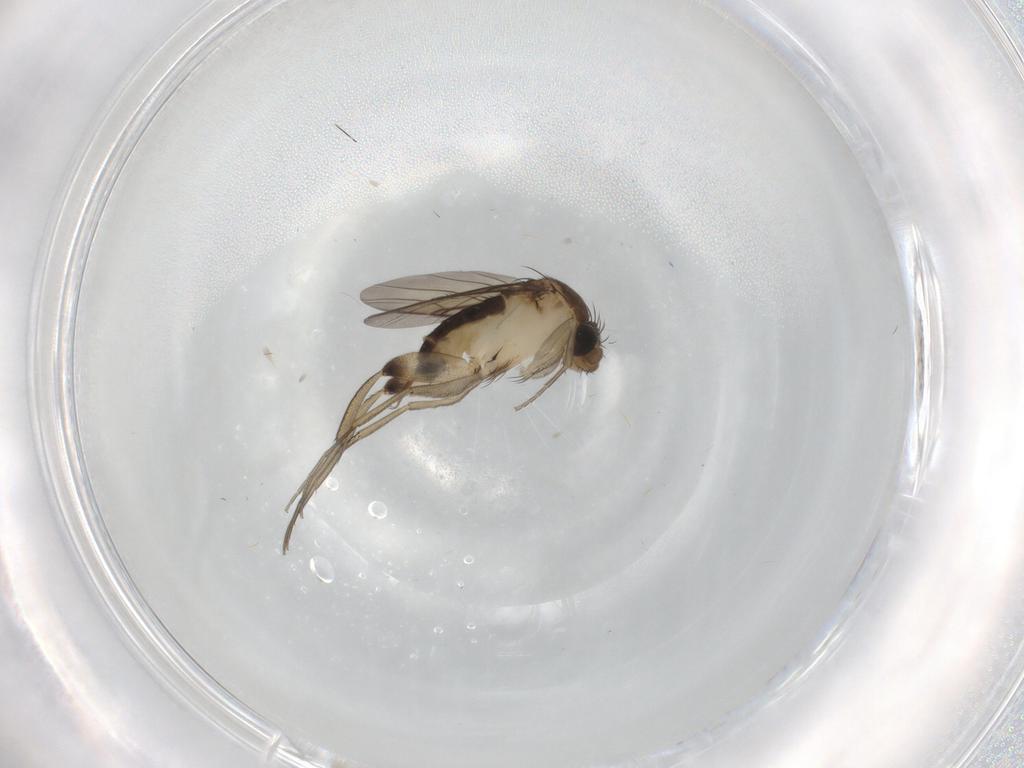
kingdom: Animalia
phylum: Arthropoda
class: Insecta
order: Diptera
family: Phoridae
